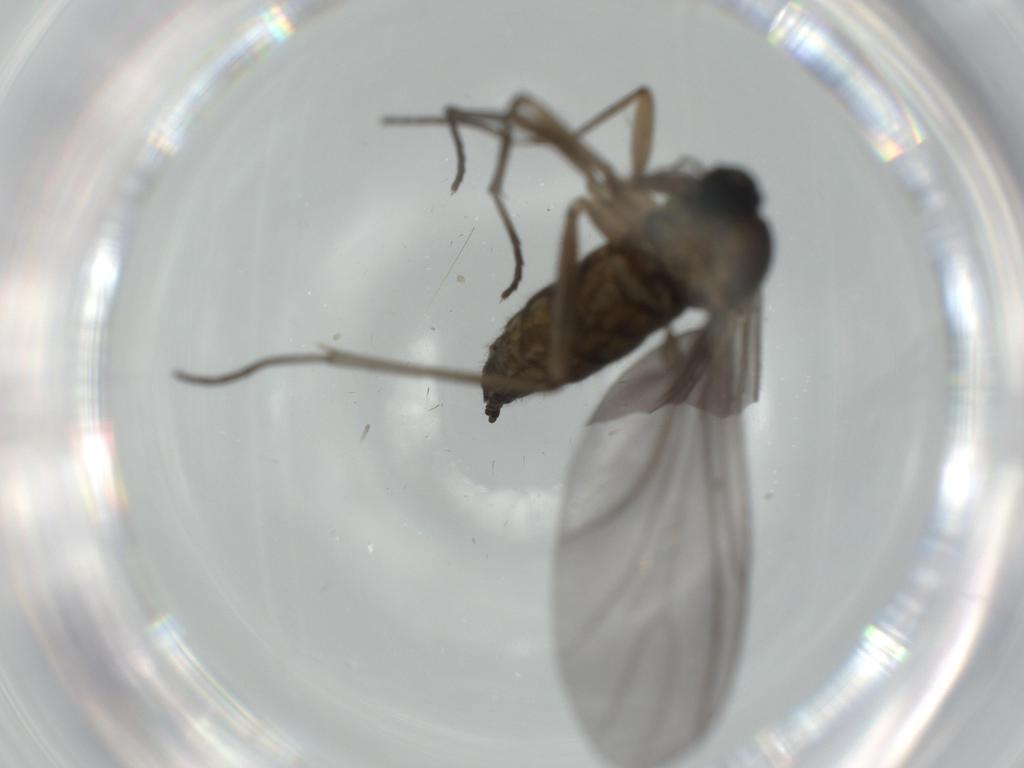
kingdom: Animalia
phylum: Arthropoda
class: Insecta
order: Diptera
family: Sciaridae
